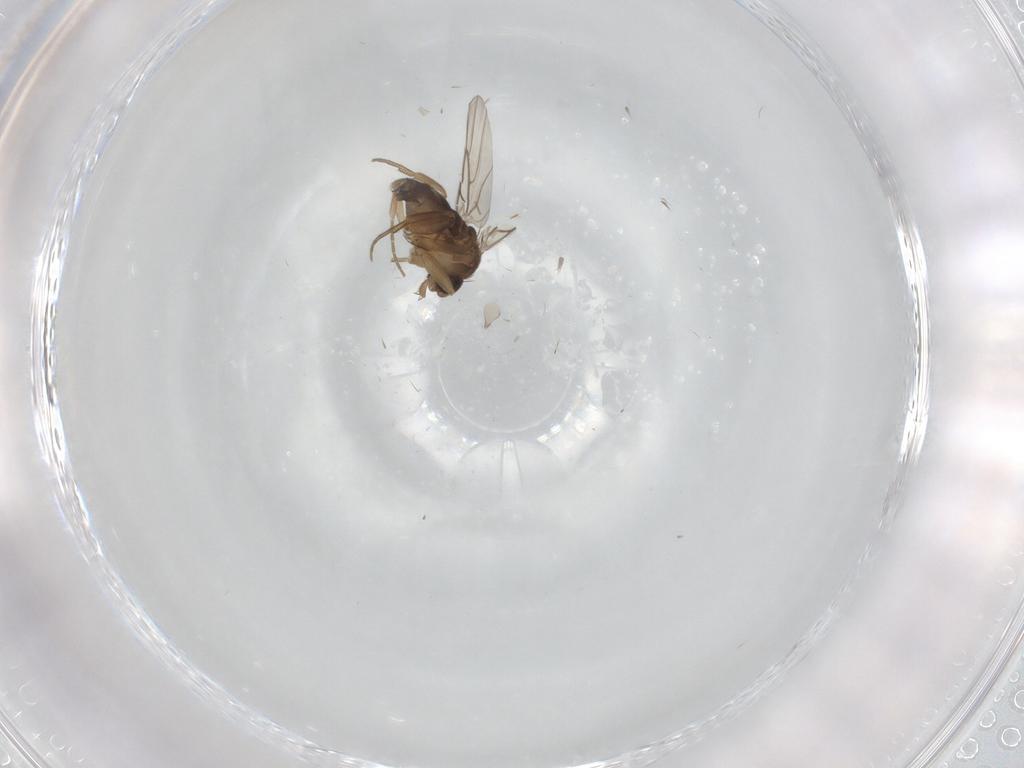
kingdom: Animalia
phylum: Arthropoda
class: Insecta
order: Diptera
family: Phoridae
